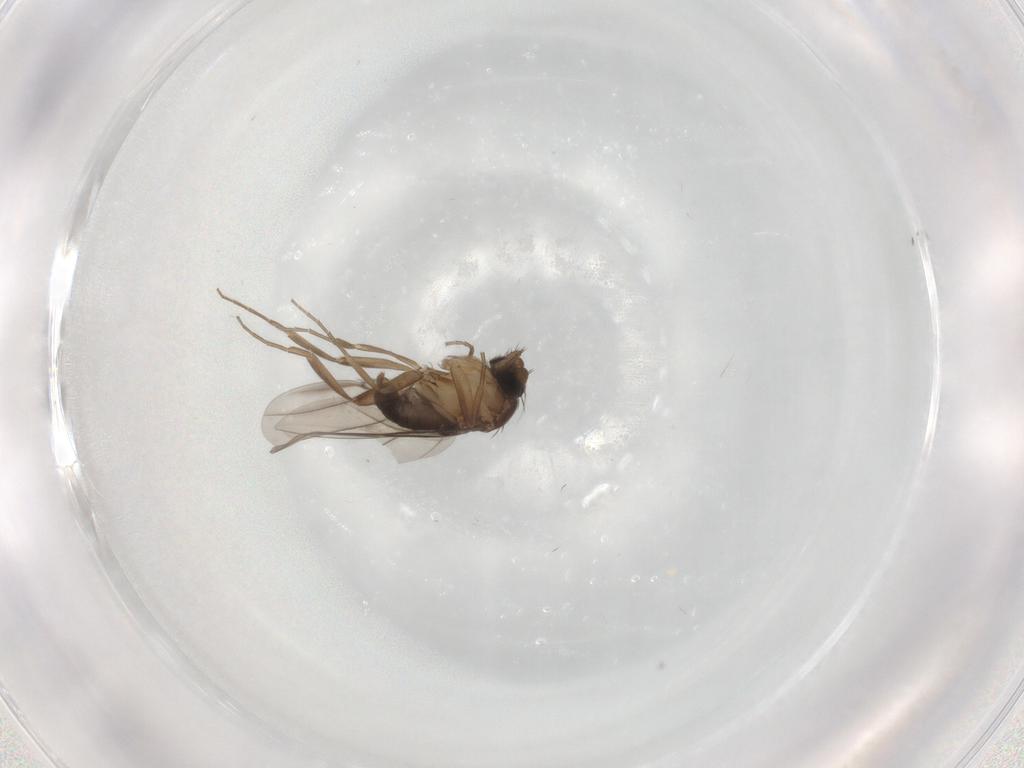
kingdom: Animalia
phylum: Arthropoda
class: Insecta
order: Diptera
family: Phoridae
